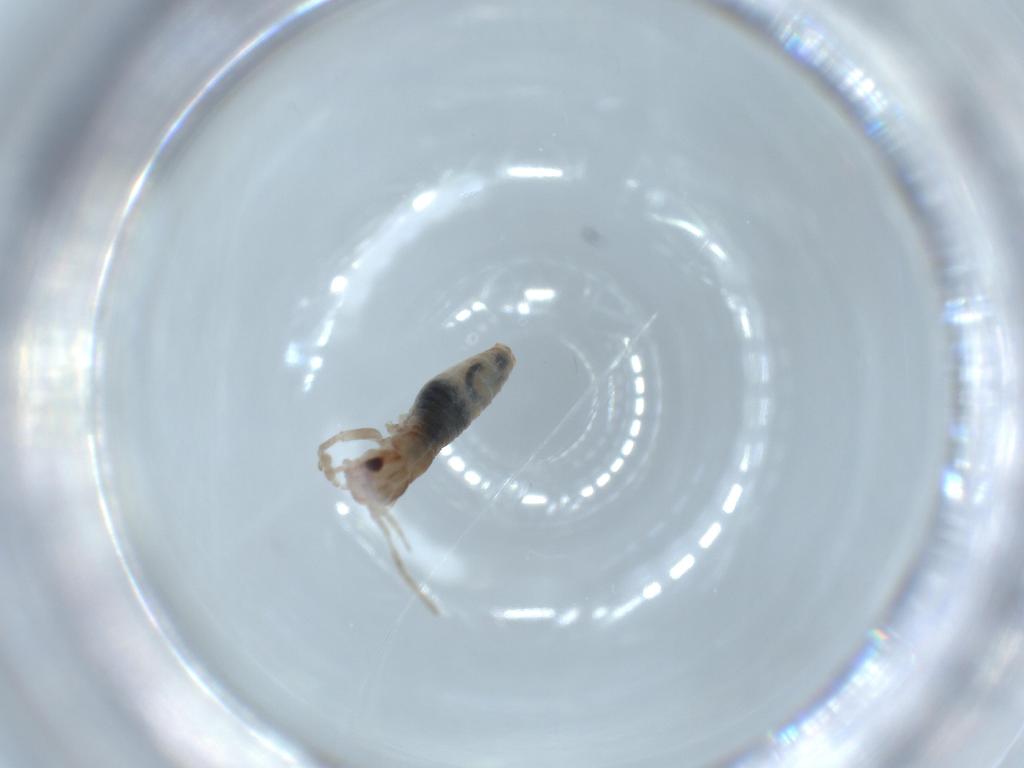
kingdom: Animalia
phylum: Arthropoda
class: Insecta
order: Orthoptera
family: Mogoplistidae
